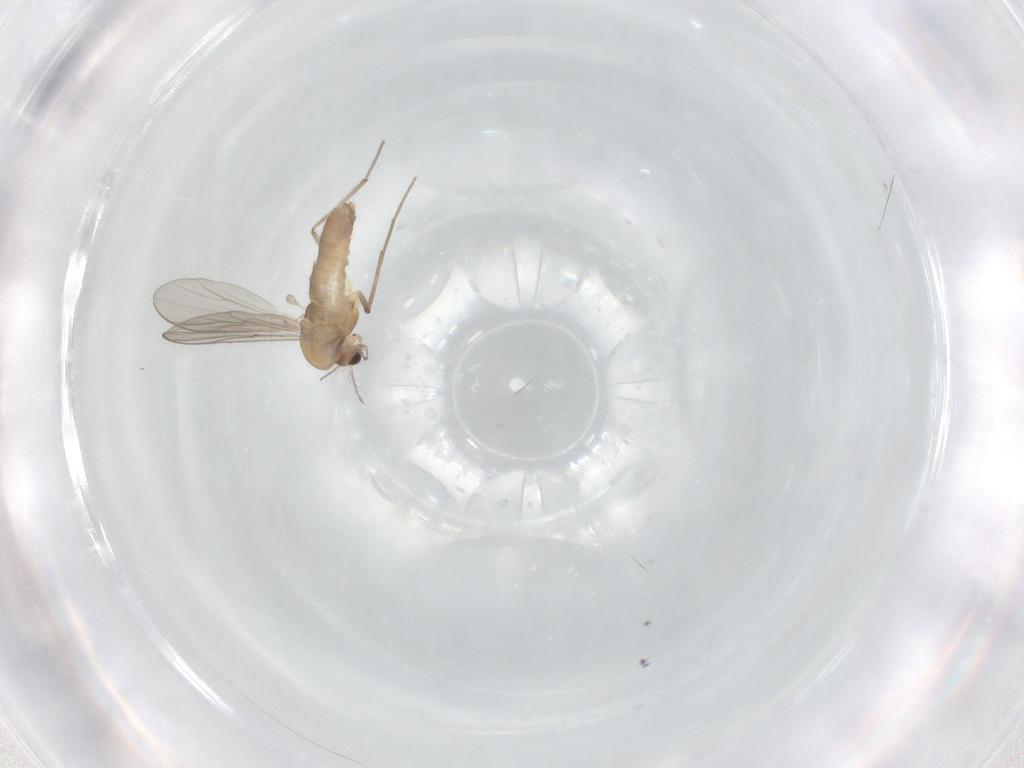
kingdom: Animalia
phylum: Arthropoda
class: Insecta
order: Diptera
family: Chironomidae
